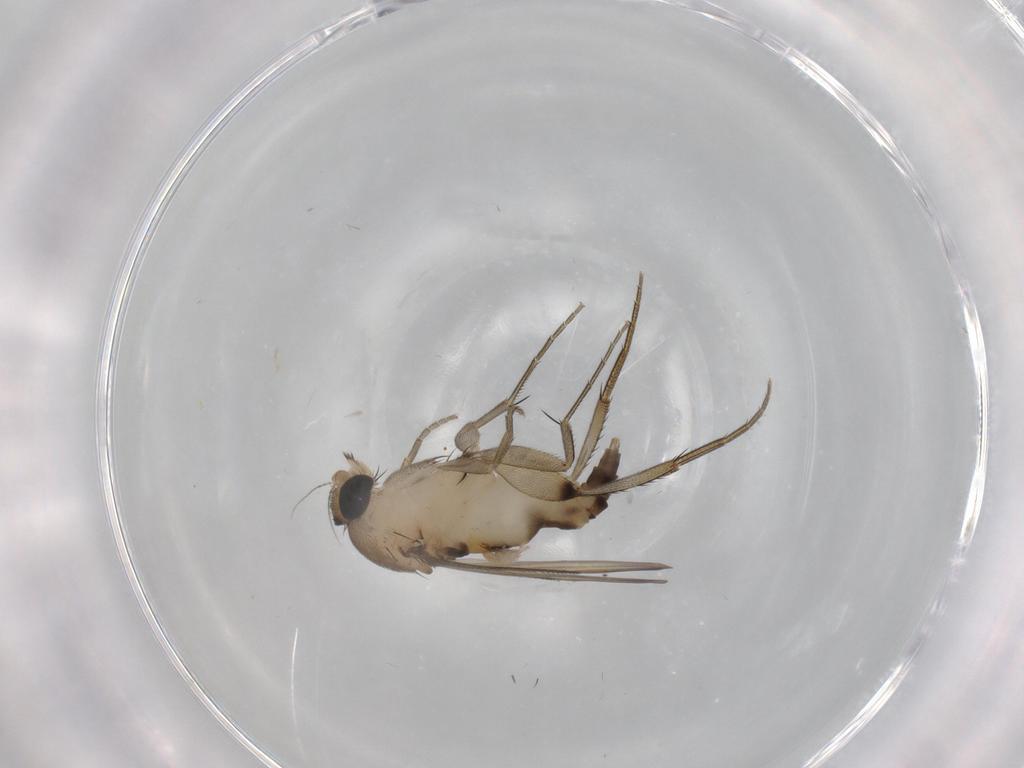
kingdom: Animalia
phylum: Arthropoda
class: Insecta
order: Diptera
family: Phoridae
